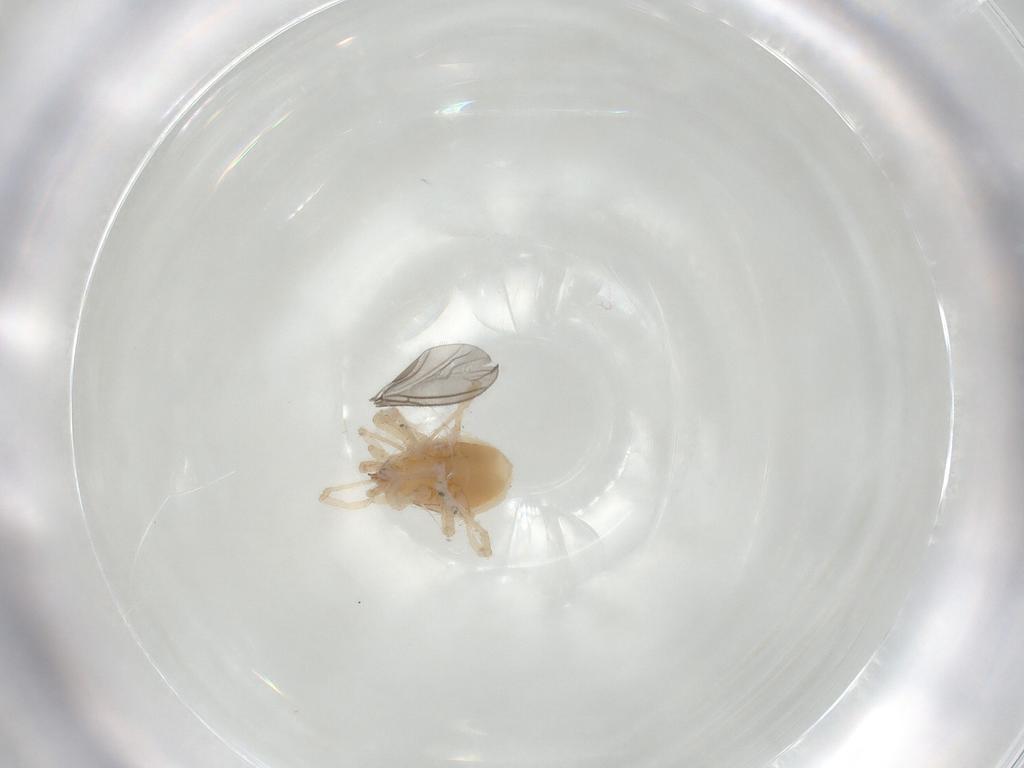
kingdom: Animalia
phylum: Arthropoda
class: Arachnida
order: Mesostigmata
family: Parasitidae
